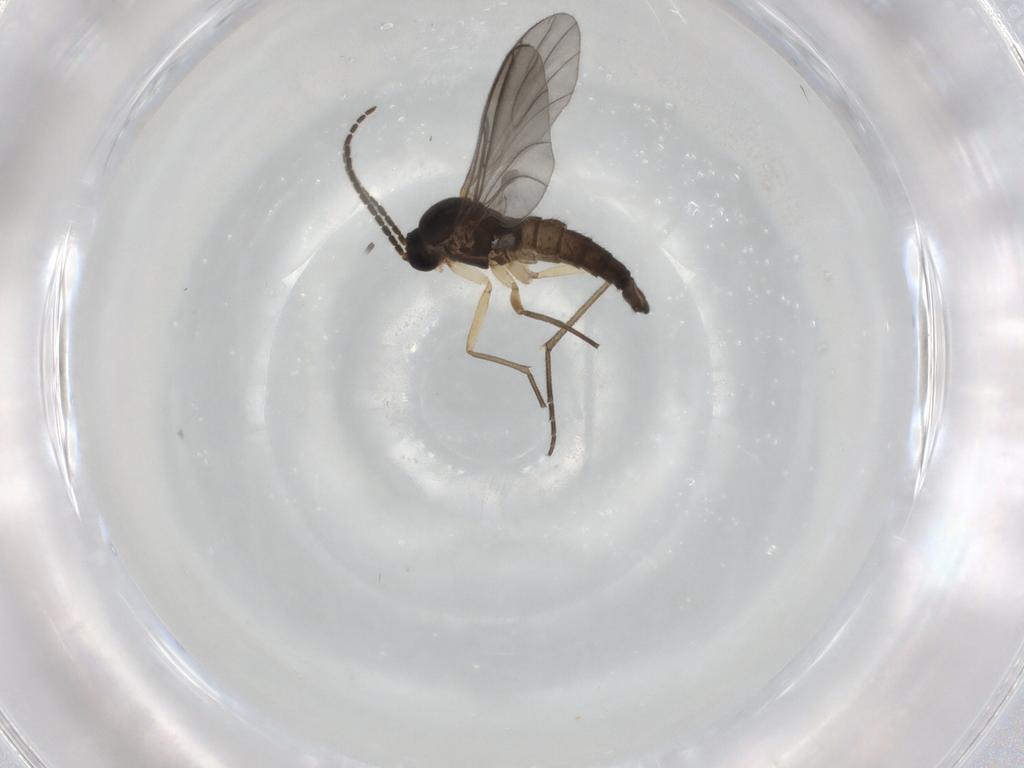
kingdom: Animalia
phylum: Arthropoda
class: Insecta
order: Diptera
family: Sciaridae
